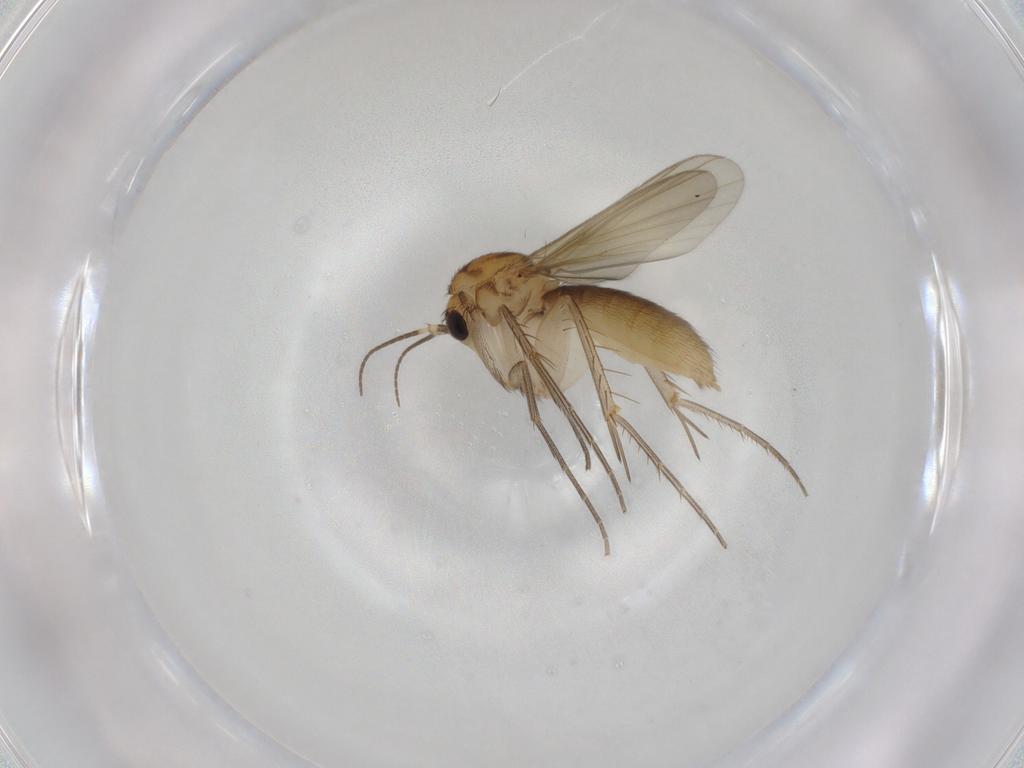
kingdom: Animalia
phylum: Arthropoda
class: Insecta
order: Diptera
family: Mycetophilidae
